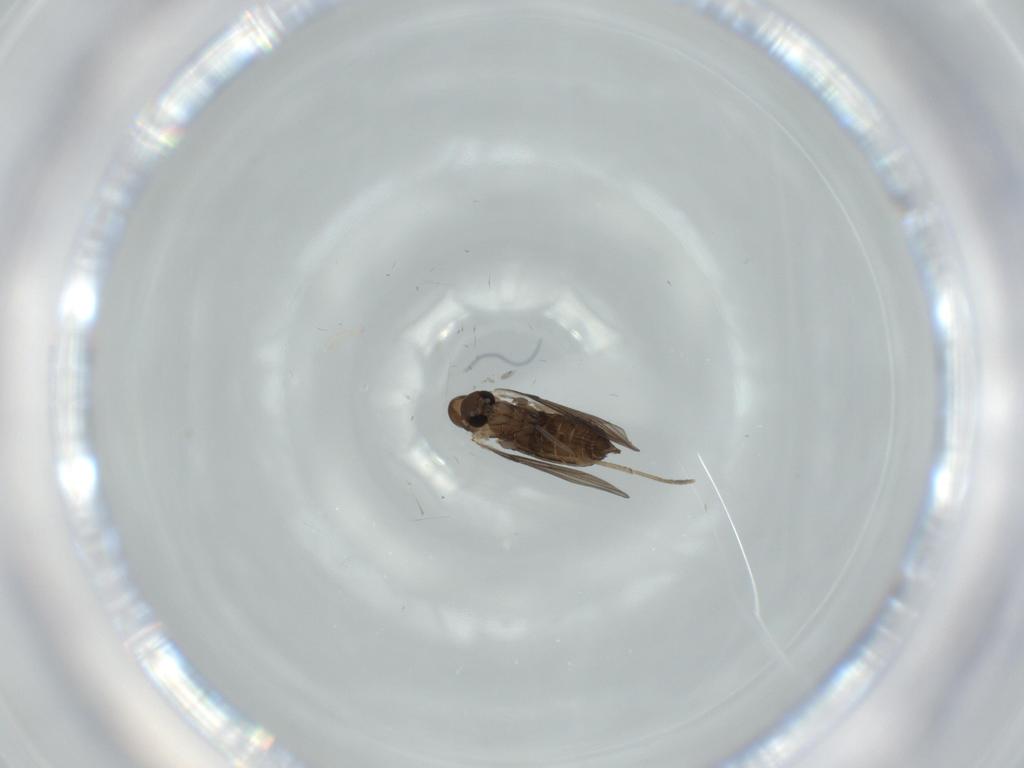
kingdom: Animalia
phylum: Arthropoda
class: Insecta
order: Diptera
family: Psychodidae
